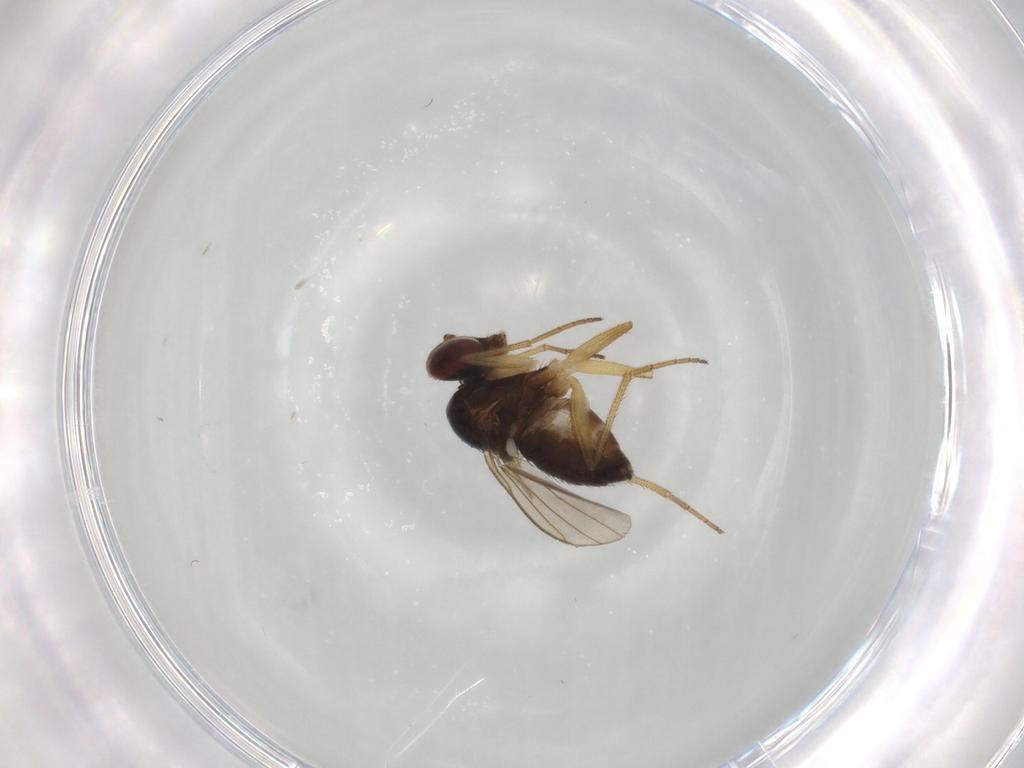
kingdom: Animalia
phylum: Arthropoda
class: Insecta
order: Diptera
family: Dolichopodidae
